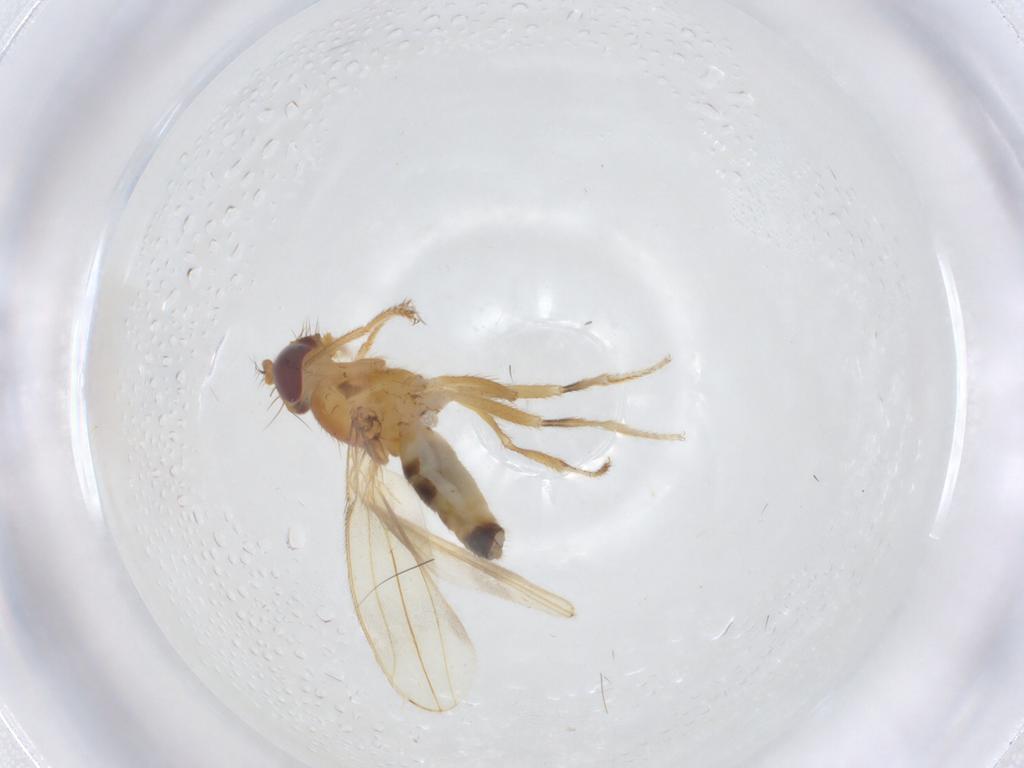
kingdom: Animalia
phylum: Arthropoda
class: Insecta
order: Diptera
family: Periscelididae
